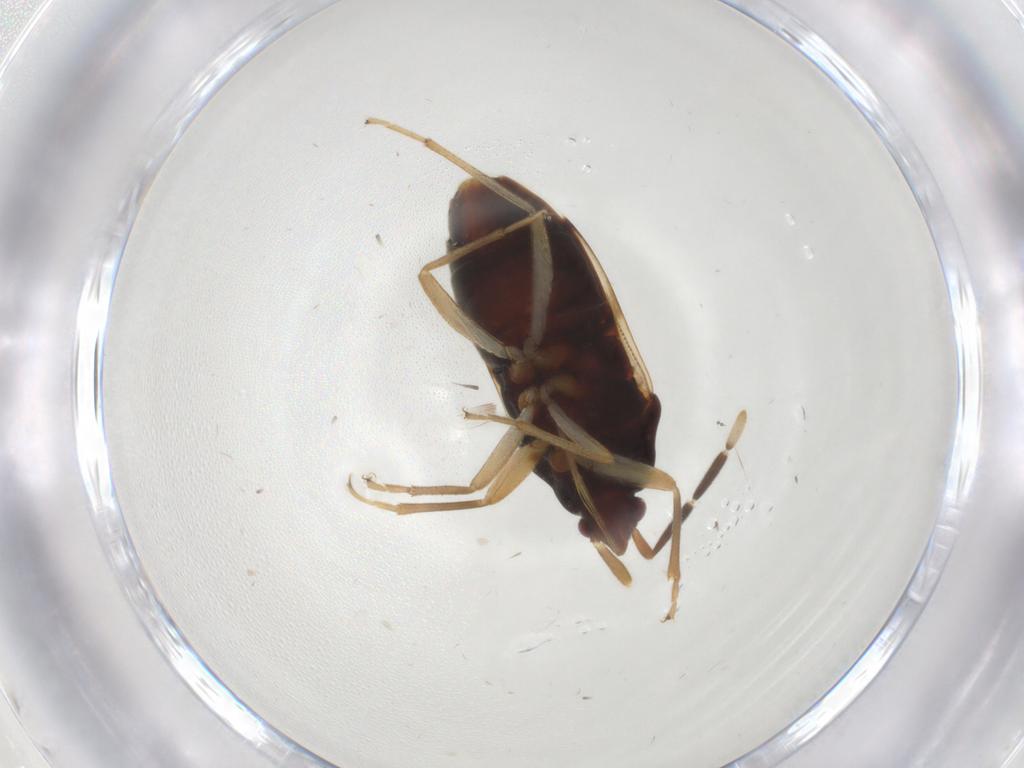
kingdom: Animalia
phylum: Arthropoda
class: Insecta
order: Hemiptera
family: Rhyparochromidae
